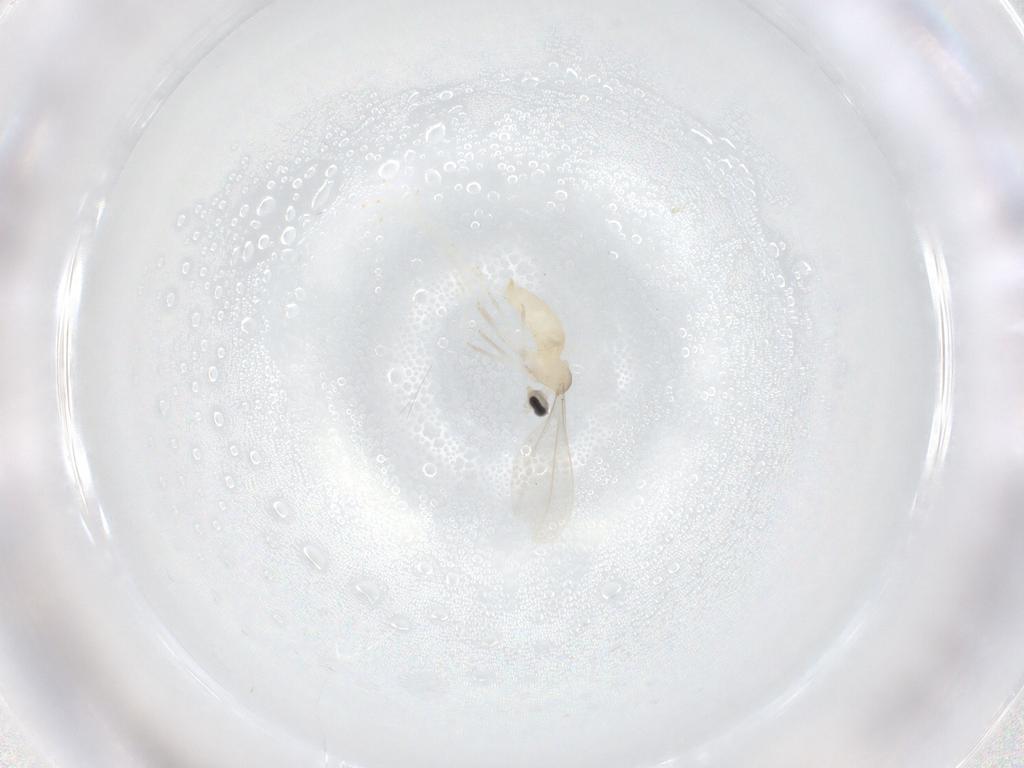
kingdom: Animalia
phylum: Arthropoda
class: Insecta
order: Diptera
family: Cecidomyiidae
